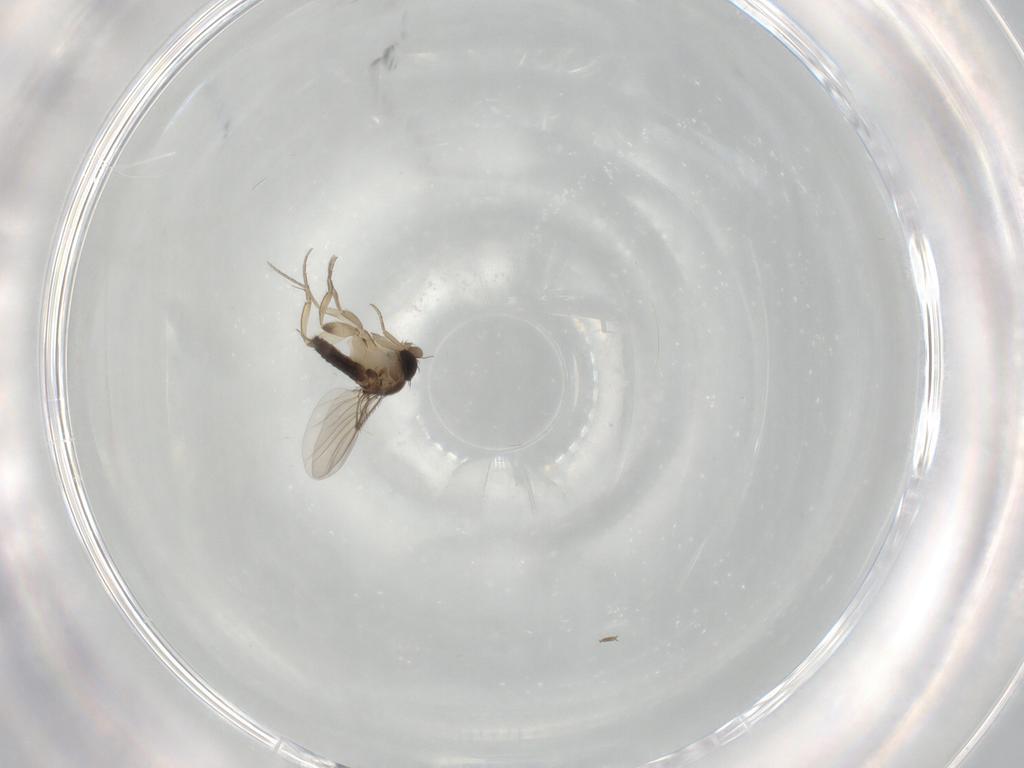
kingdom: Animalia
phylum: Arthropoda
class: Insecta
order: Diptera
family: Phoridae
